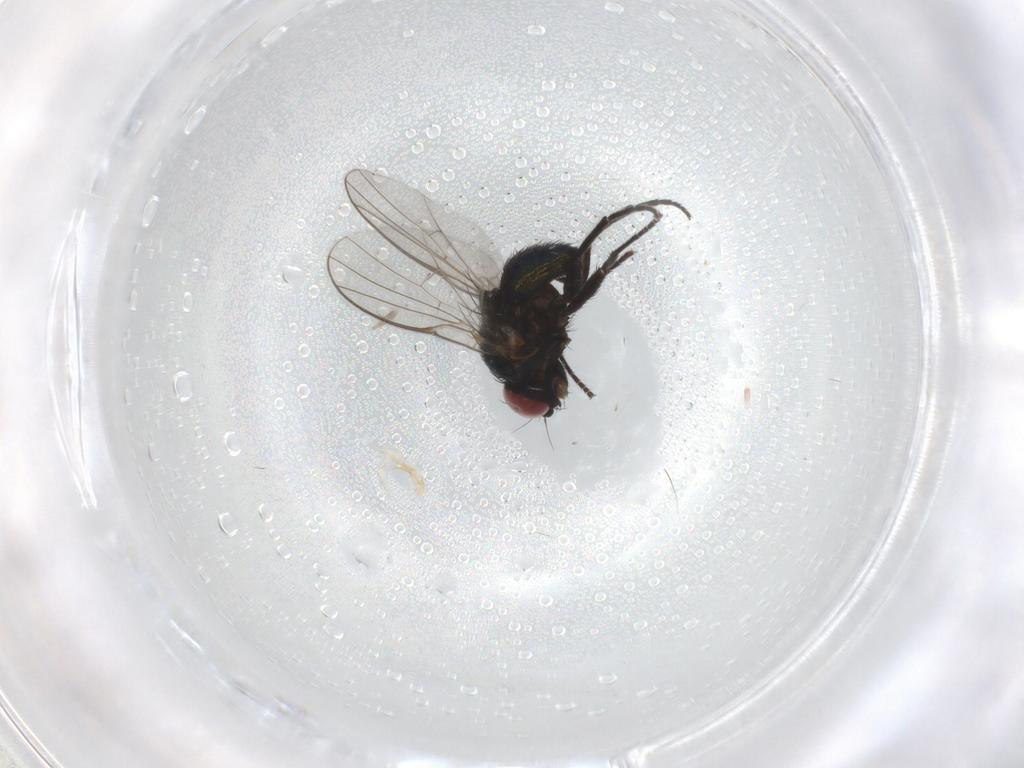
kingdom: Animalia
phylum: Arthropoda
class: Insecta
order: Diptera
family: Agromyzidae
